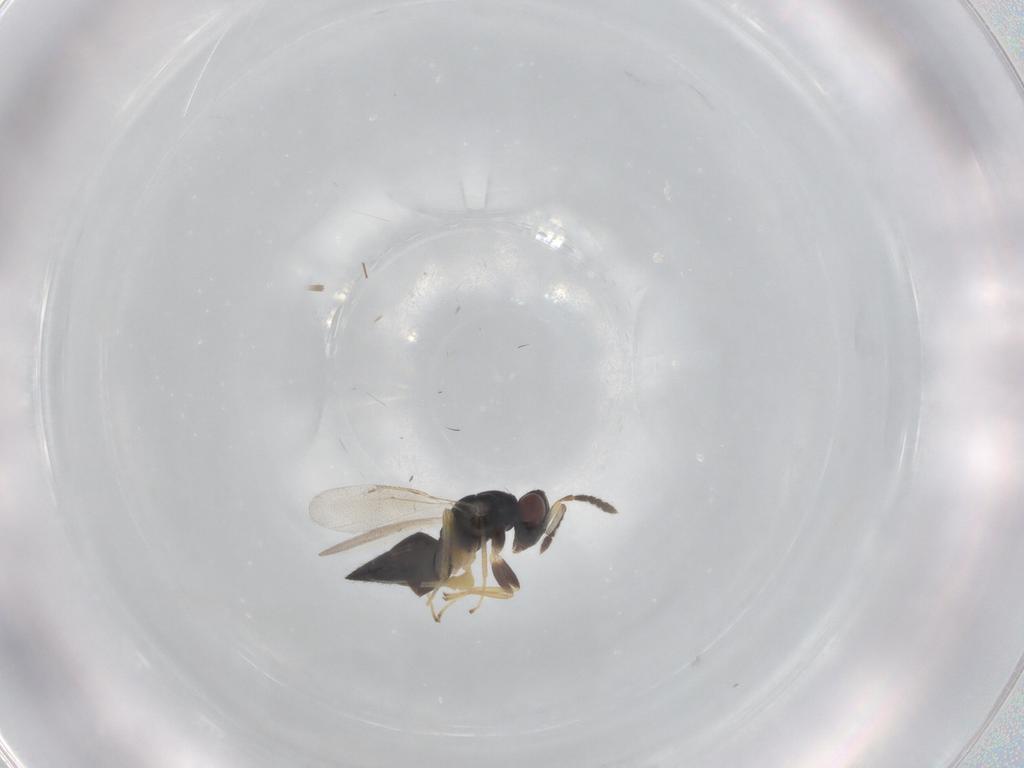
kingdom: Animalia
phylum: Arthropoda
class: Insecta
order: Hymenoptera
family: Eulophidae
